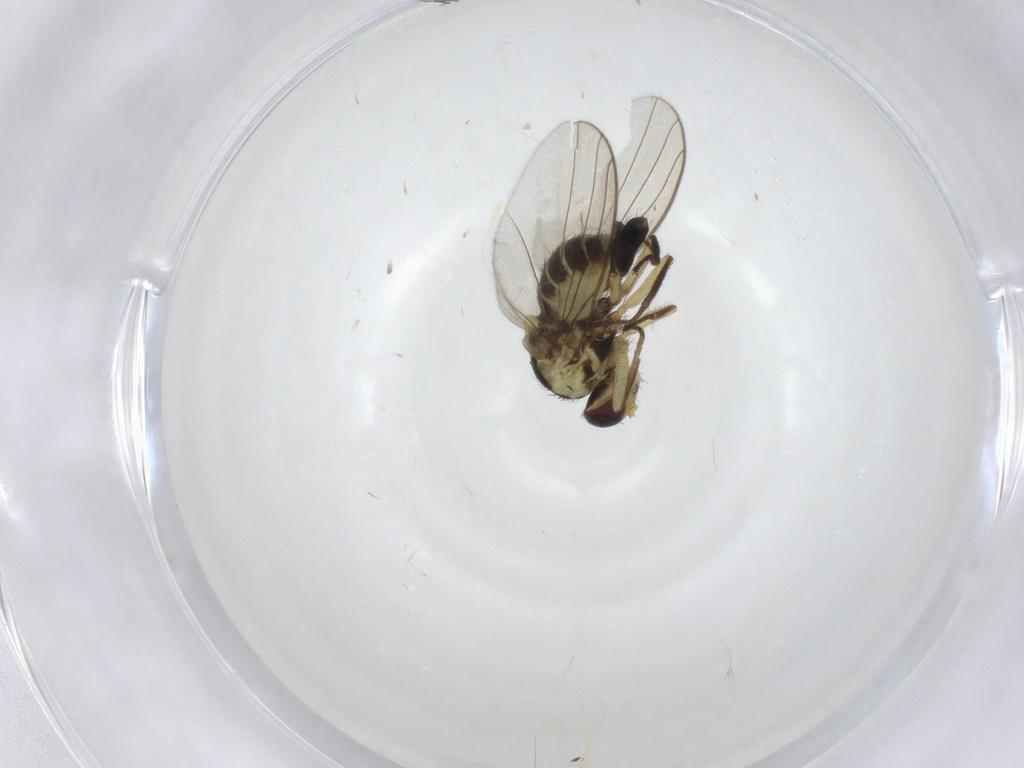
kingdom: Animalia
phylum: Arthropoda
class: Insecta
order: Diptera
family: Agromyzidae
